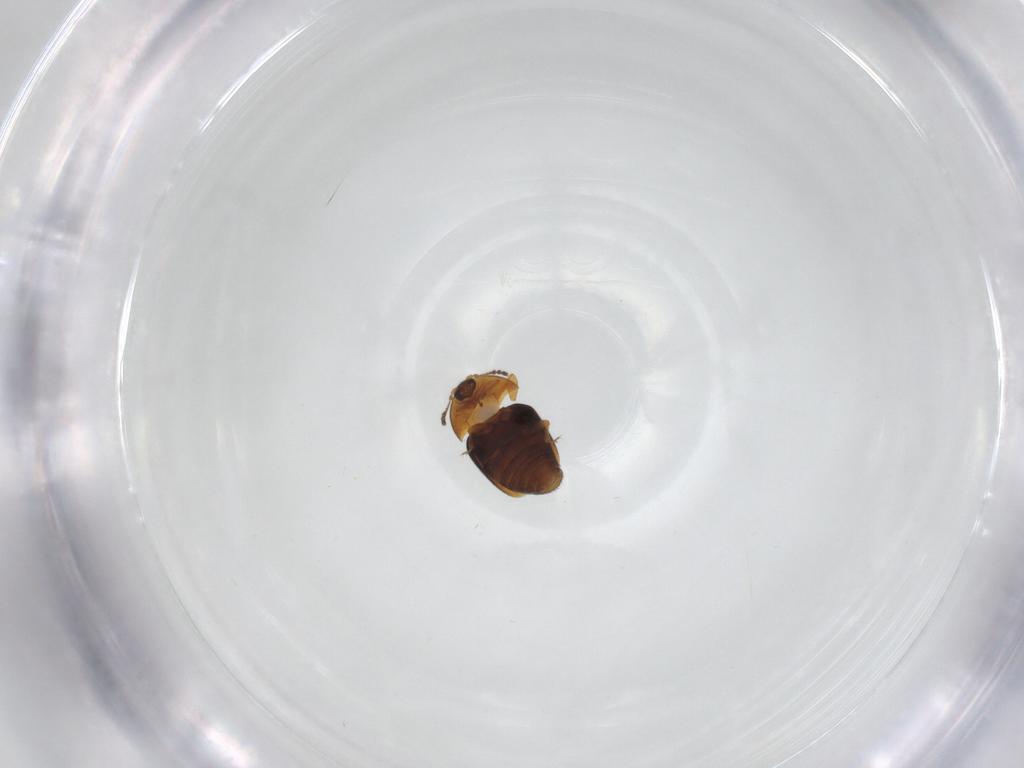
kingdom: Animalia
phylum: Arthropoda
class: Insecta
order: Coleoptera
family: Corylophidae
